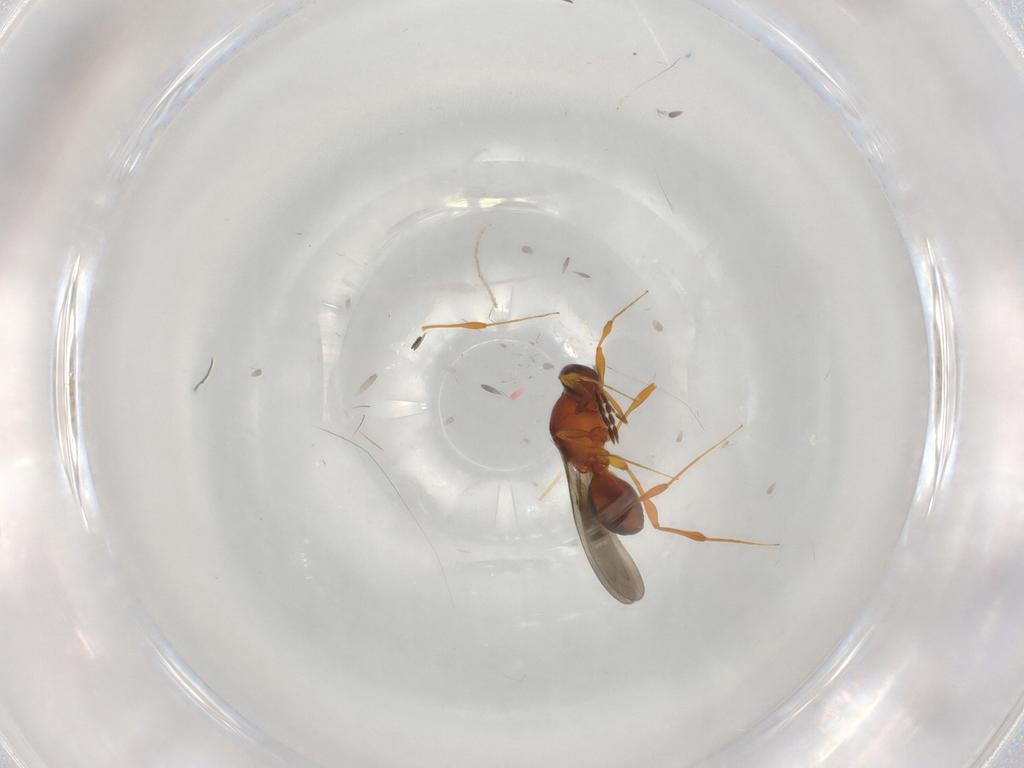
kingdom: Animalia
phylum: Arthropoda
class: Insecta
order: Hymenoptera
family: Platygastridae
